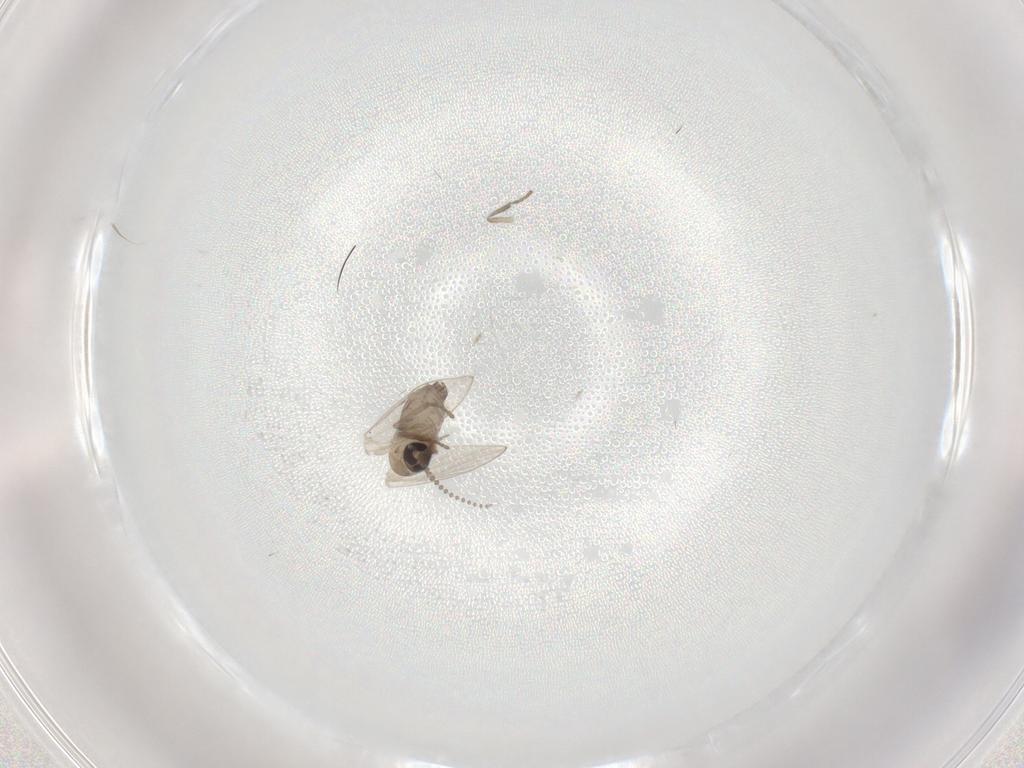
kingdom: Animalia
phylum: Arthropoda
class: Insecta
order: Diptera
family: Psychodidae
